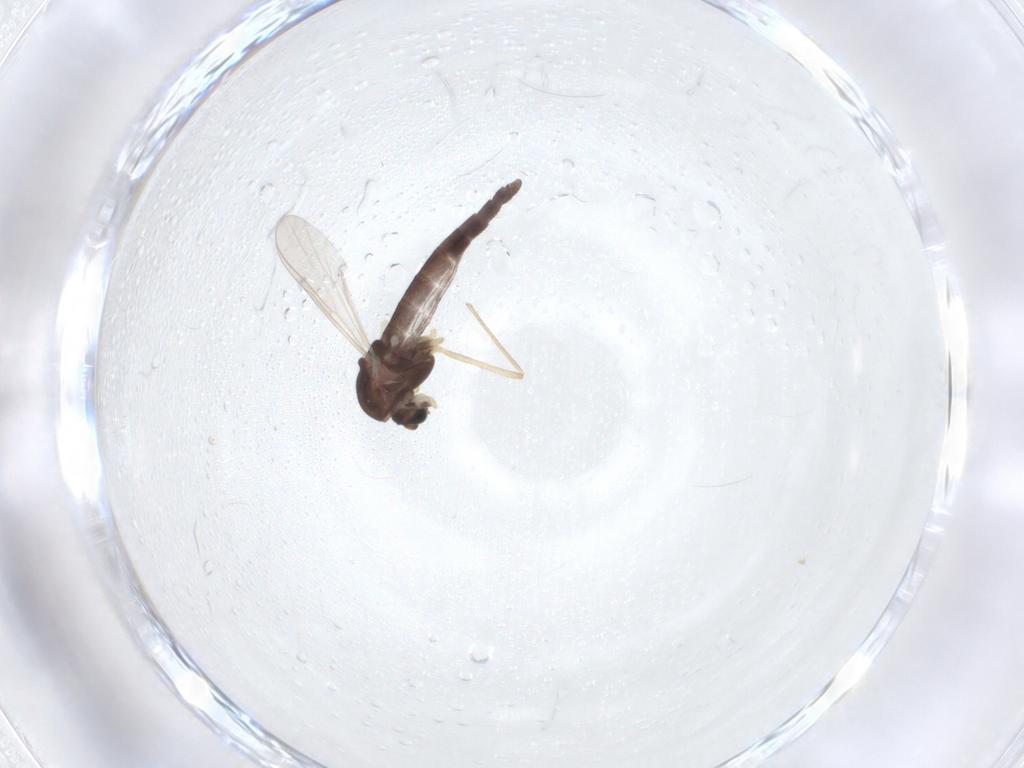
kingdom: Animalia
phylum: Arthropoda
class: Insecta
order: Diptera
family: Chironomidae
